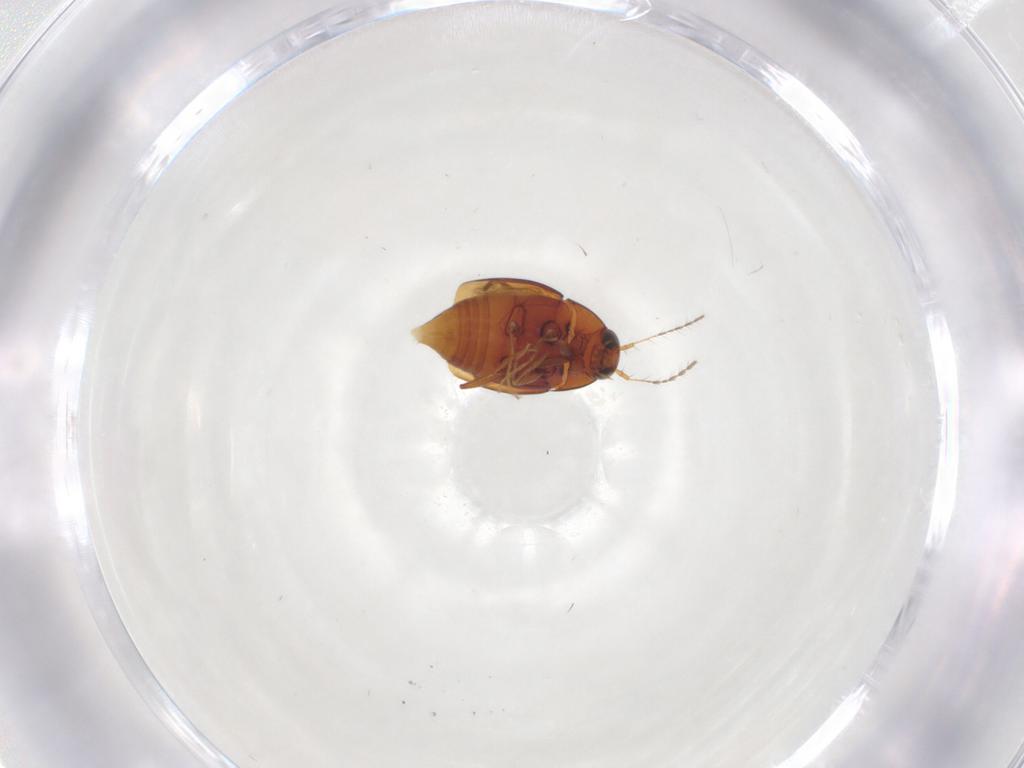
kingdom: Animalia
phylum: Arthropoda
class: Insecta
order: Coleoptera
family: Staphylinidae
